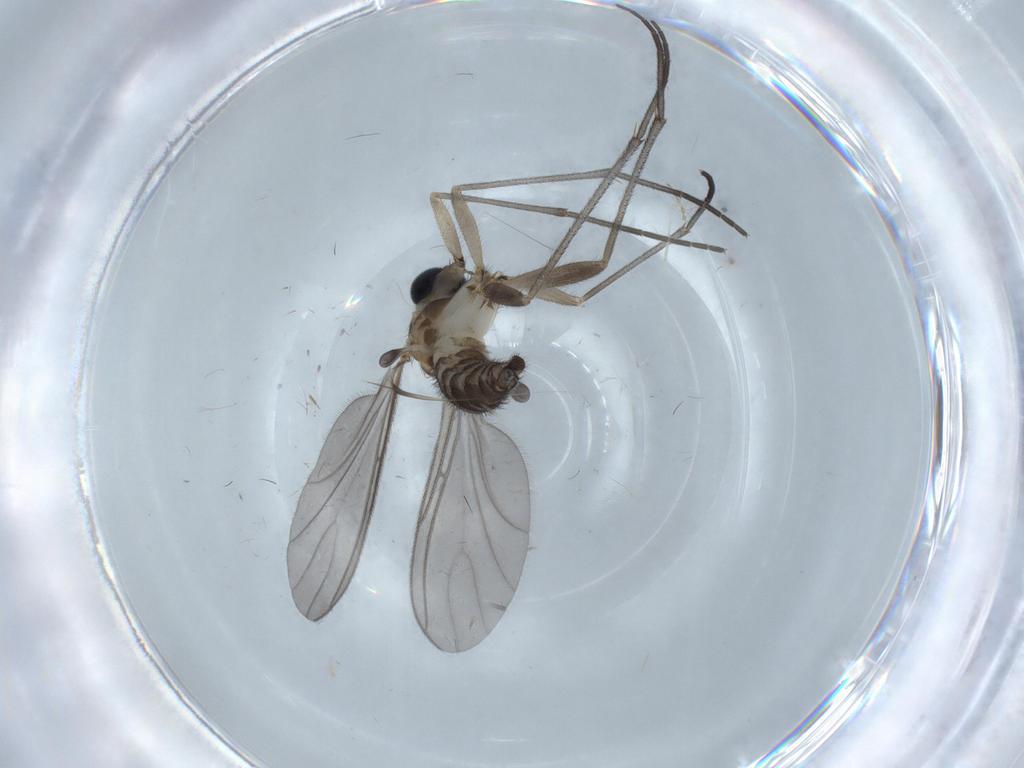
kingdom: Animalia
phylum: Arthropoda
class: Insecta
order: Diptera
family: Sciaridae
